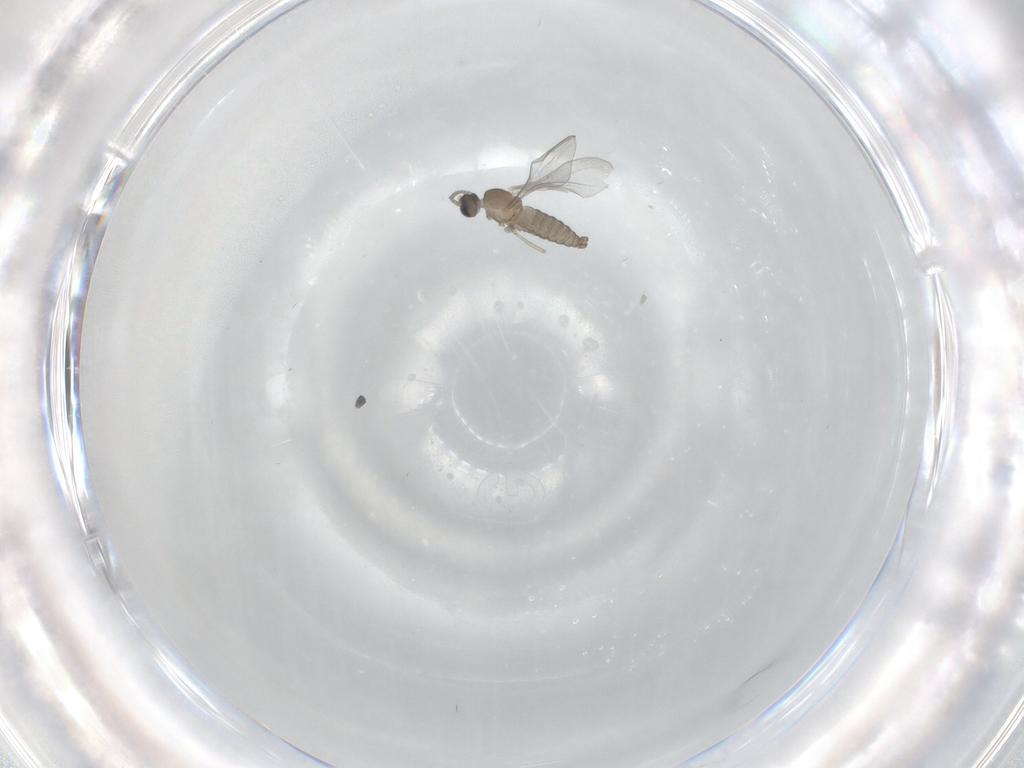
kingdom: Animalia
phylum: Arthropoda
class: Insecta
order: Diptera
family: Cecidomyiidae
